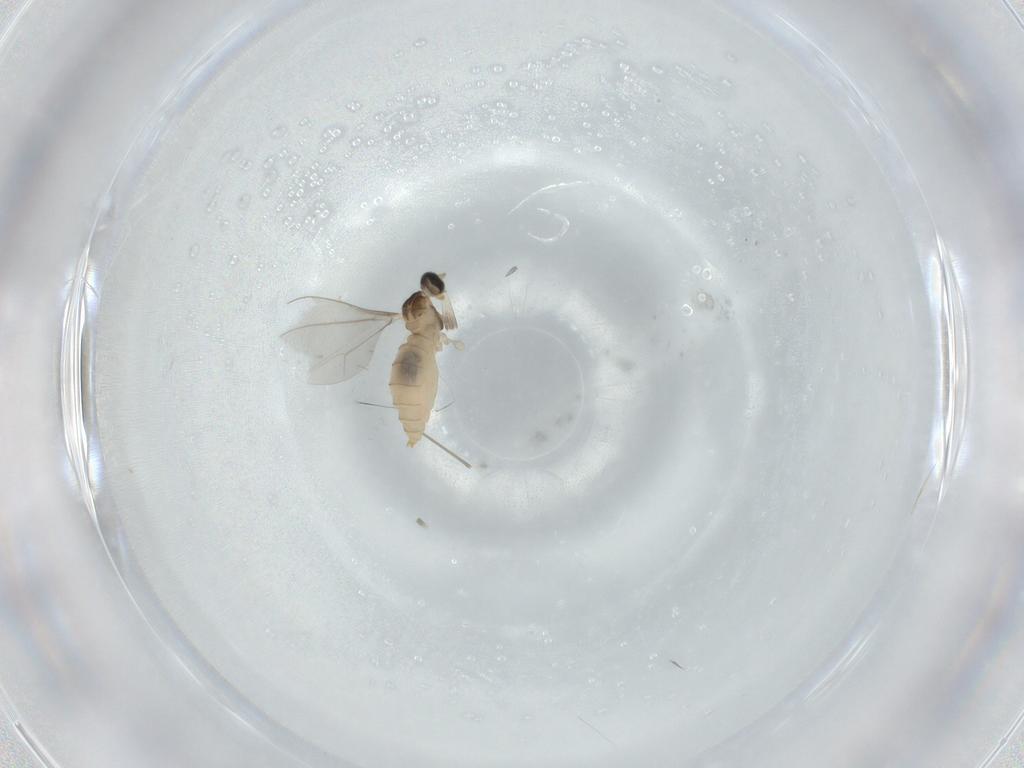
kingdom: Animalia
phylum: Arthropoda
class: Insecta
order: Diptera
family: Cecidomyiidae
